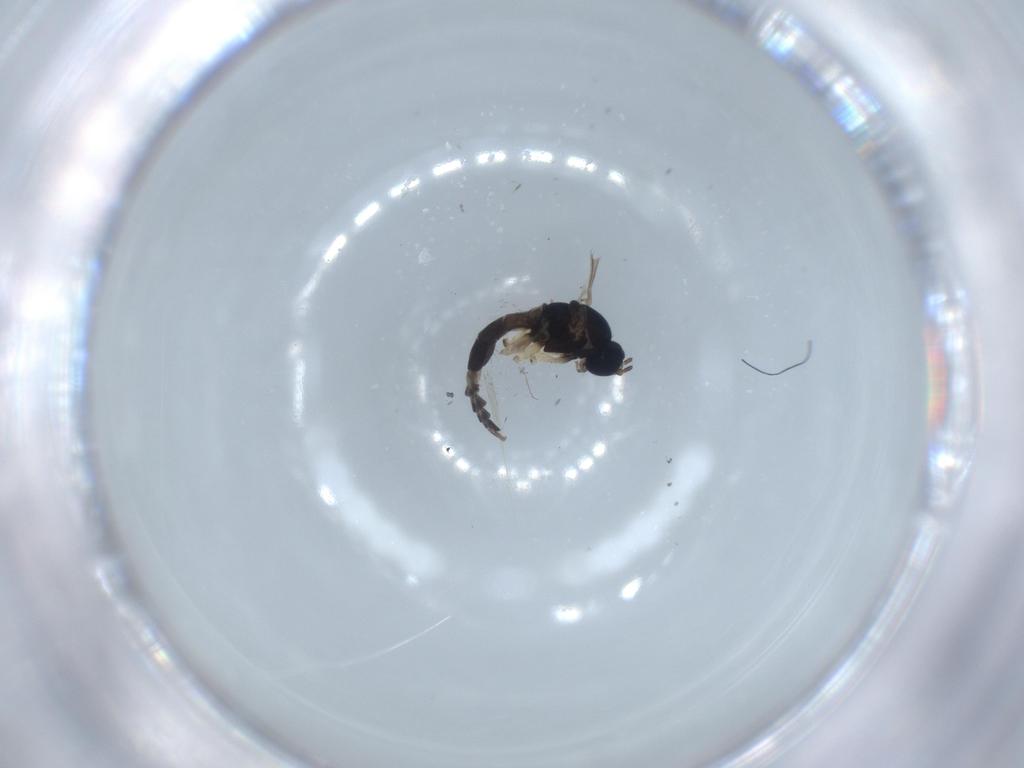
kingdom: Animalia
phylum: Arthropoda
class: Insecta
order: Diptera
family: Sciaridae
